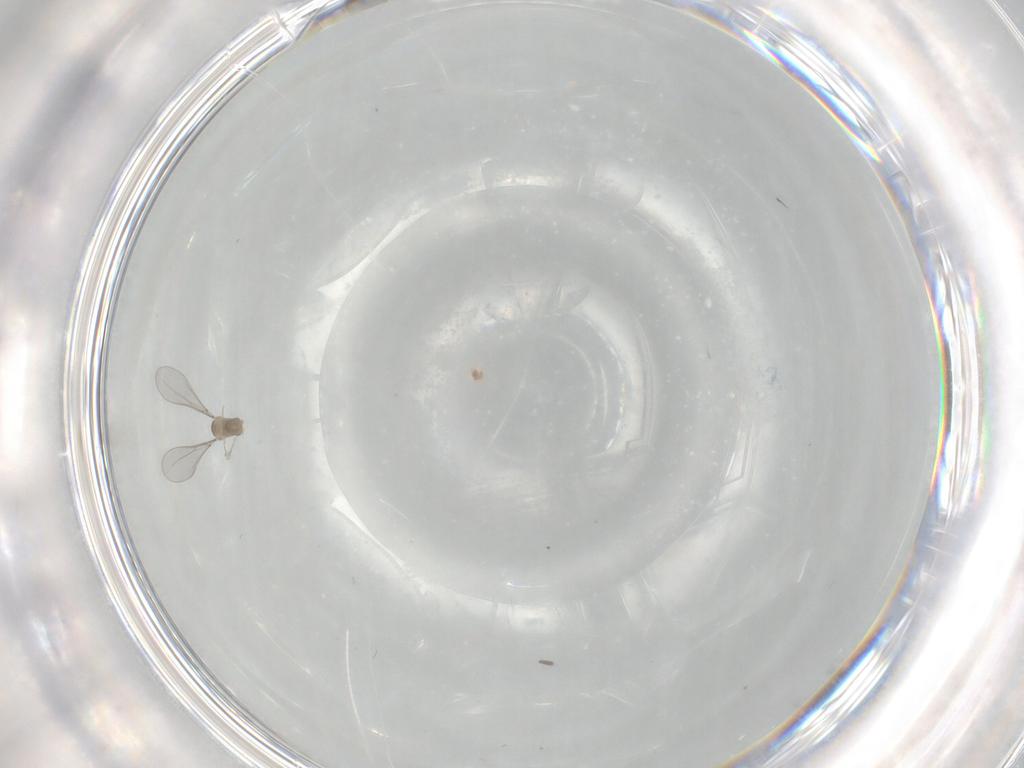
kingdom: Animalia
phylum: Arthropoda
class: Insecta
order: Diptera
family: Cecidomyiidae
